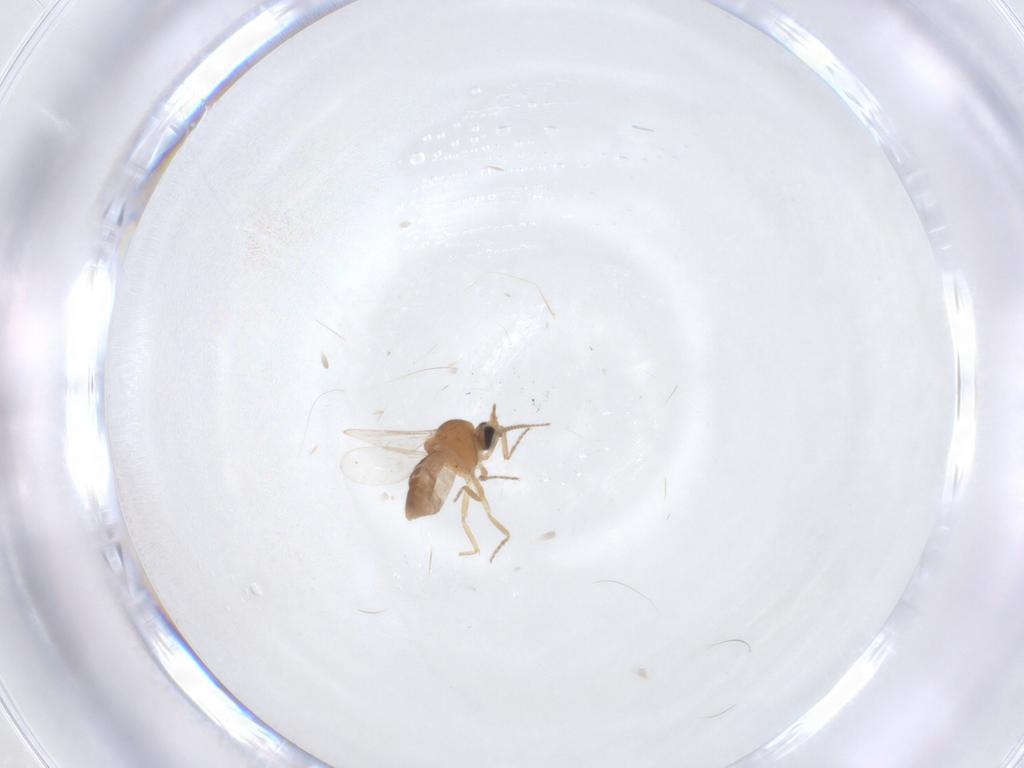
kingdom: Animalia
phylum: Arthropoda
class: Insecta
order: Diptera
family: Ceratopogonidae
